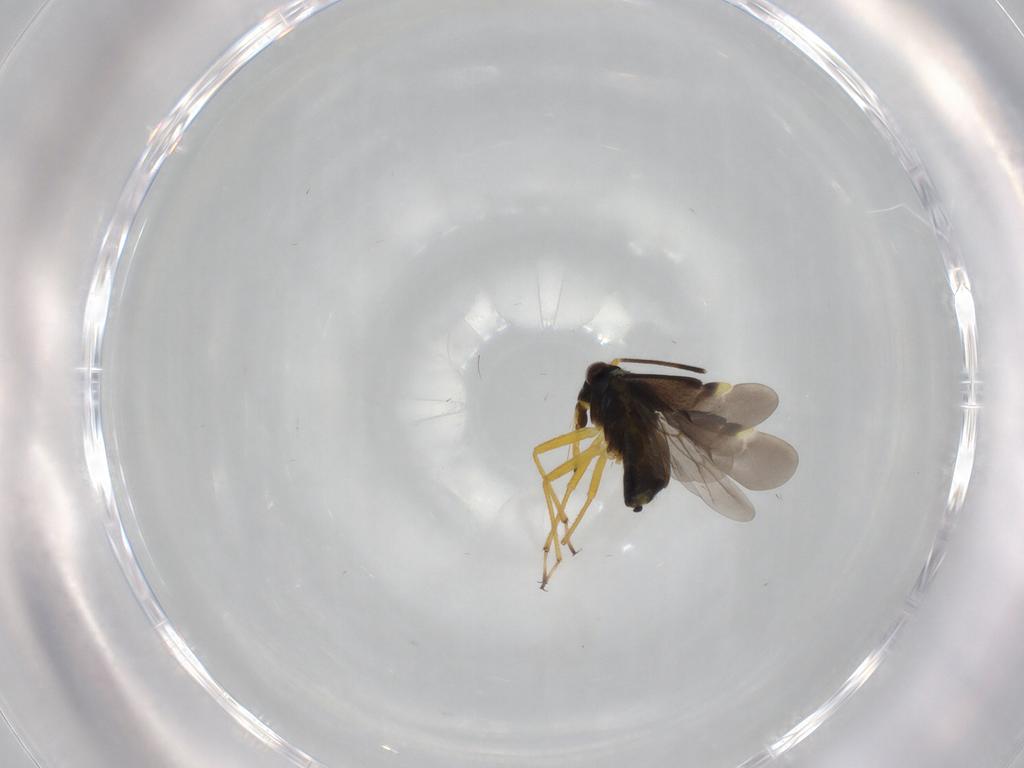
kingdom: Animalia
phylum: Arthropoda
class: Insecta
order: Hemiptera
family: Miridae
